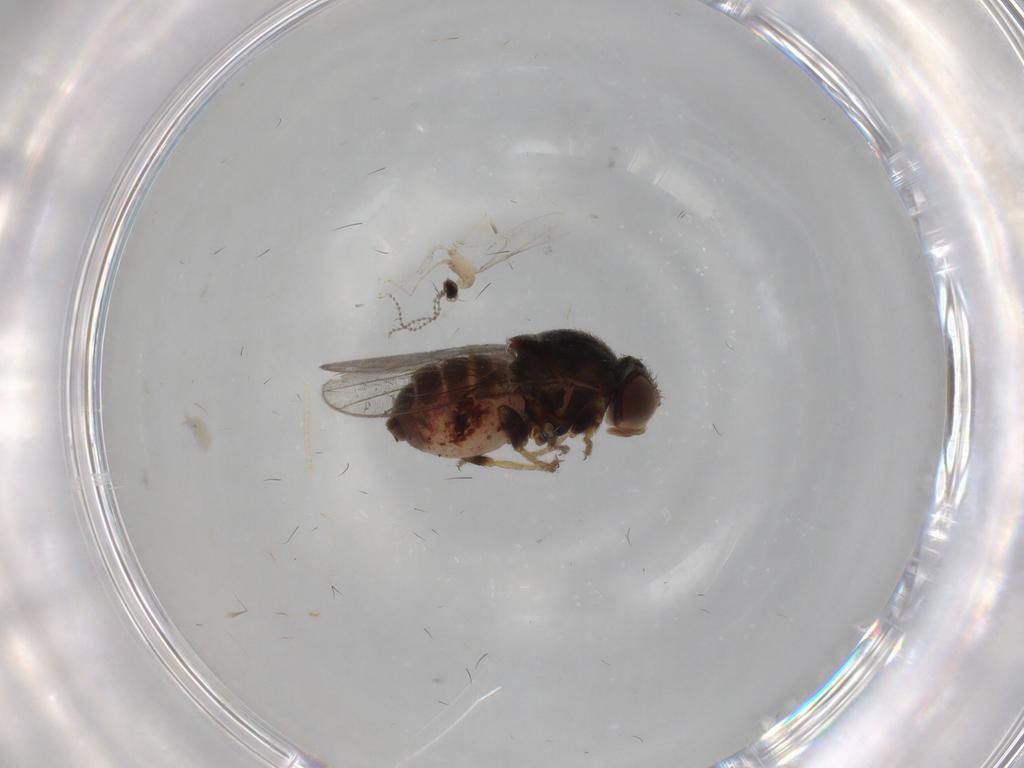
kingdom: Animalia
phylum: Arthropoda
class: Insecta
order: Diptera
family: Chloropidae
